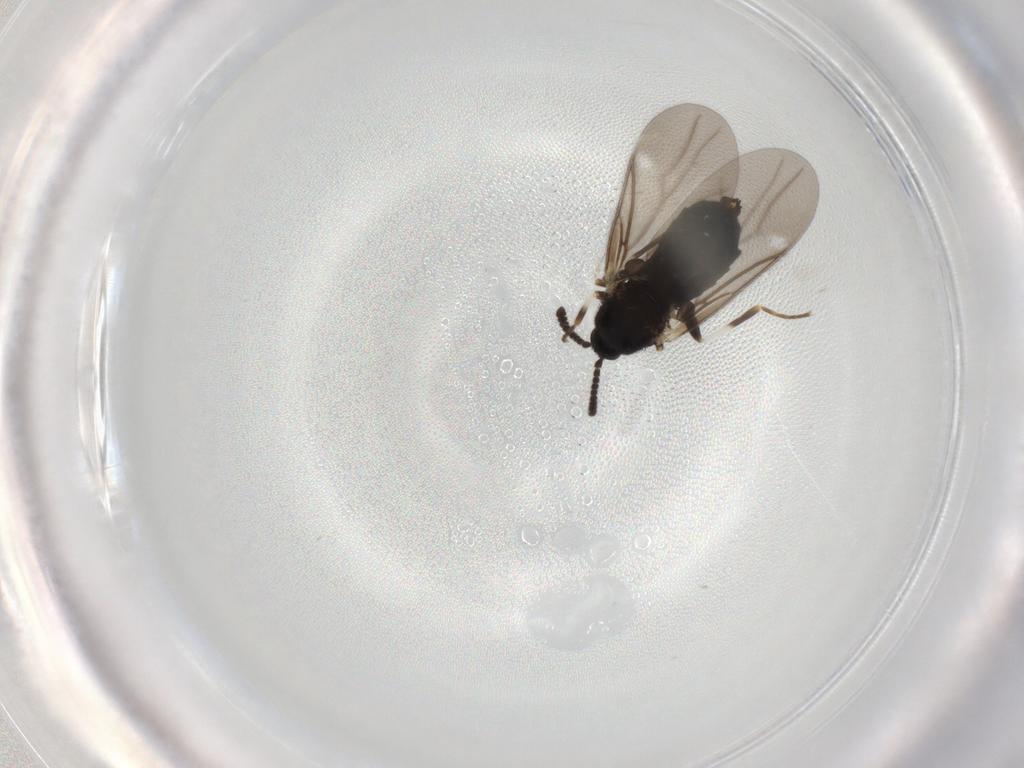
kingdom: Animalia
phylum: Arthropoda
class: Insecta
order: Diptera
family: Scatopsidae
